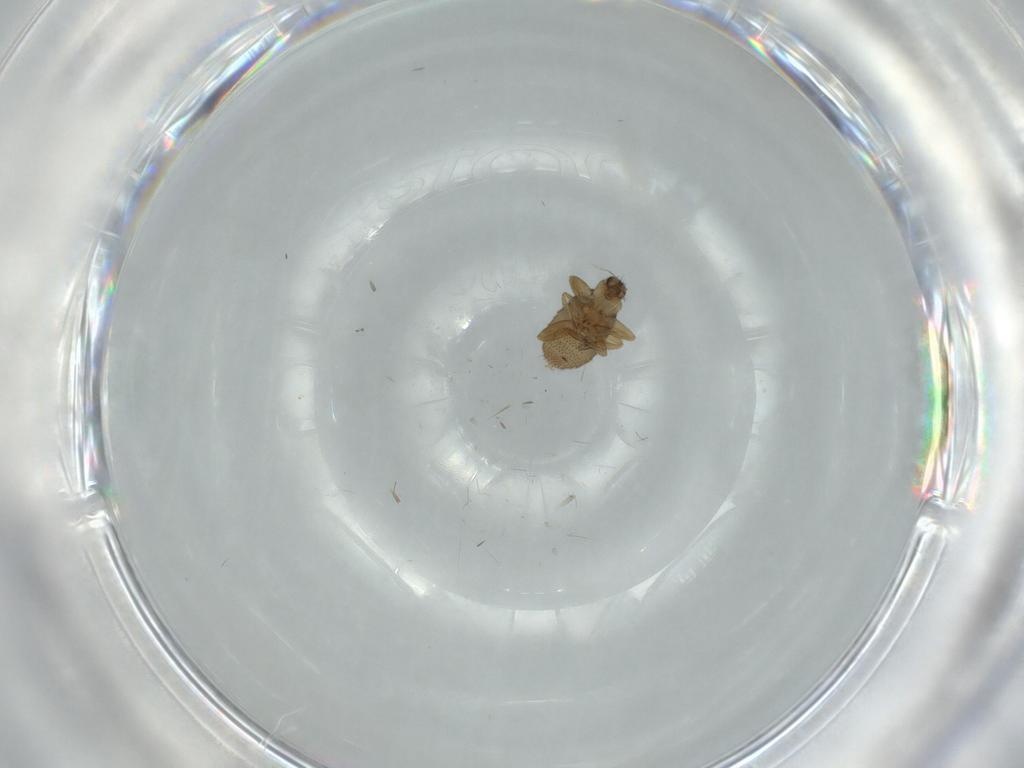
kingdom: Animalia
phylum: Arthropoda
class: Insecta
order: Diptera
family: Phoridae
